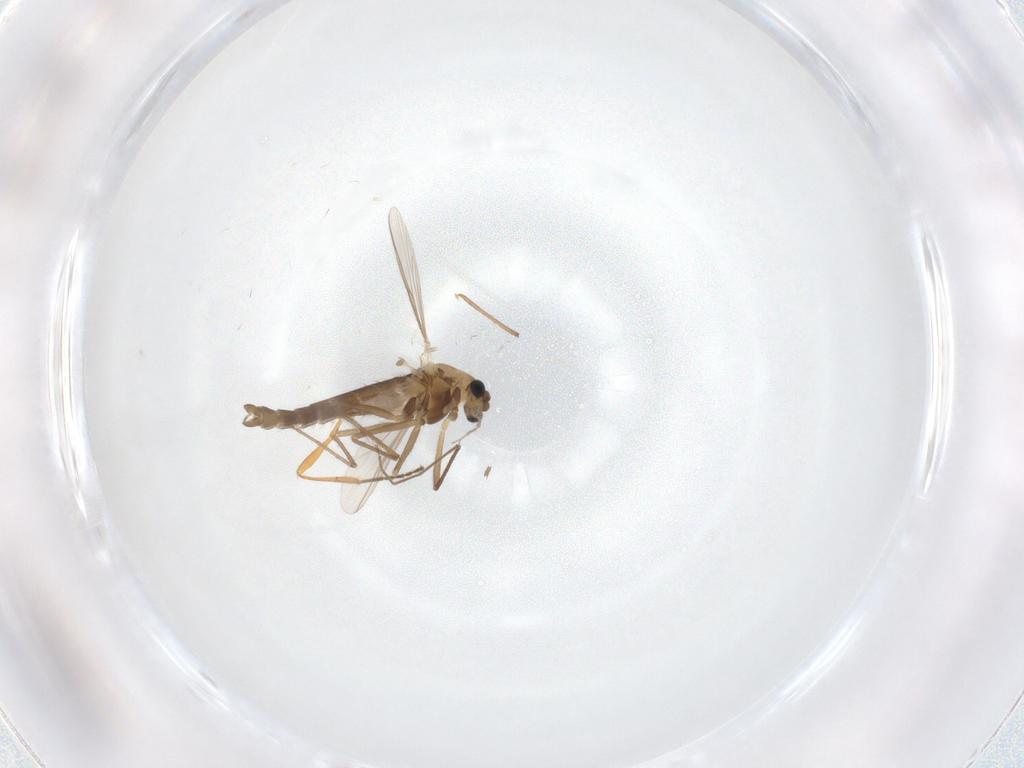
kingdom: Animalia
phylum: Arthropoda
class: Insecta
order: Diptera
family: Chironomidae
